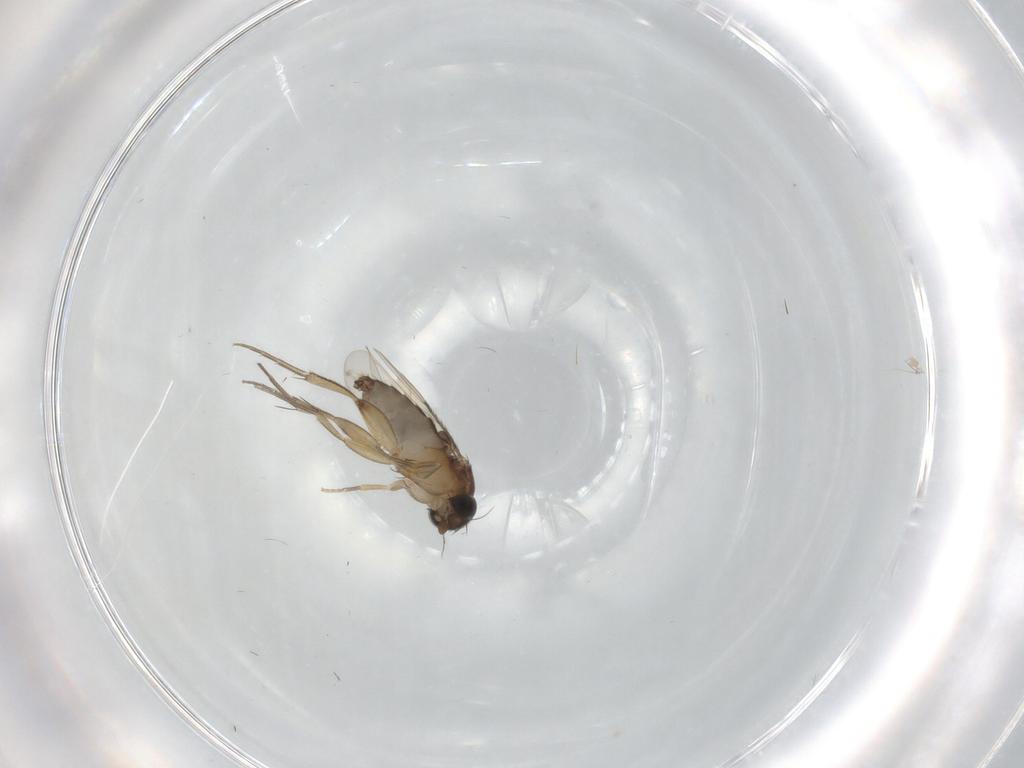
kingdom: Animalia
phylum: Arthropoda
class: Insecta
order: Diptera
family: Phoridae
